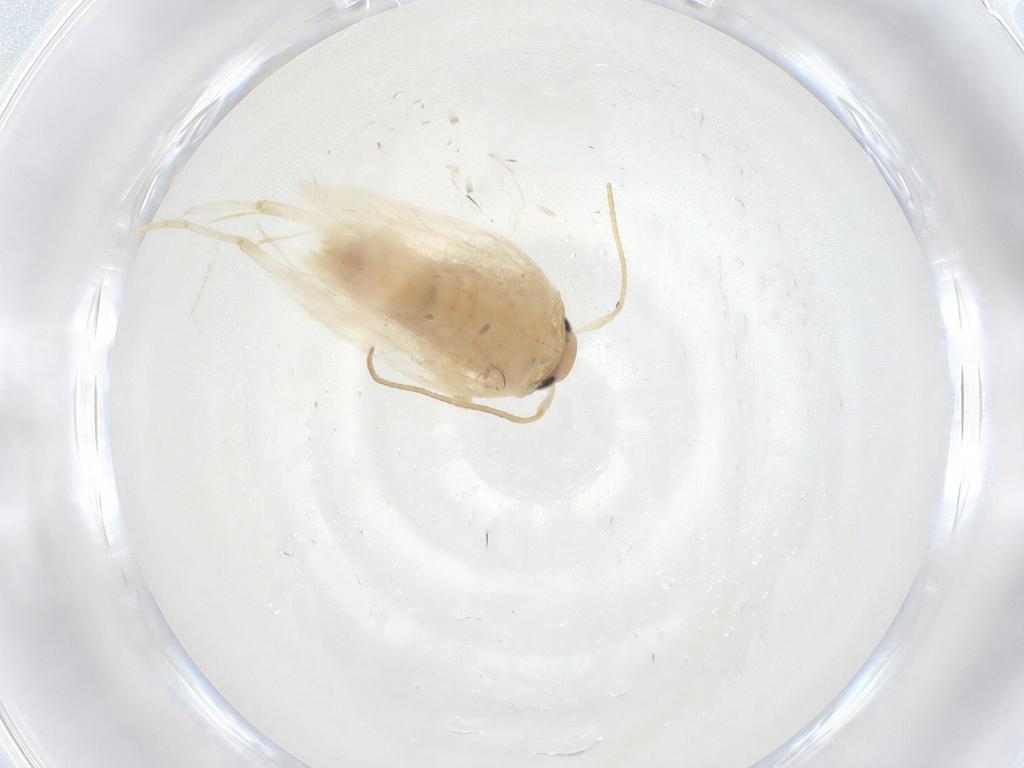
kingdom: Animalia
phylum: Arthropoda
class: Insecta
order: Lepidoptera
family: Erebidae
